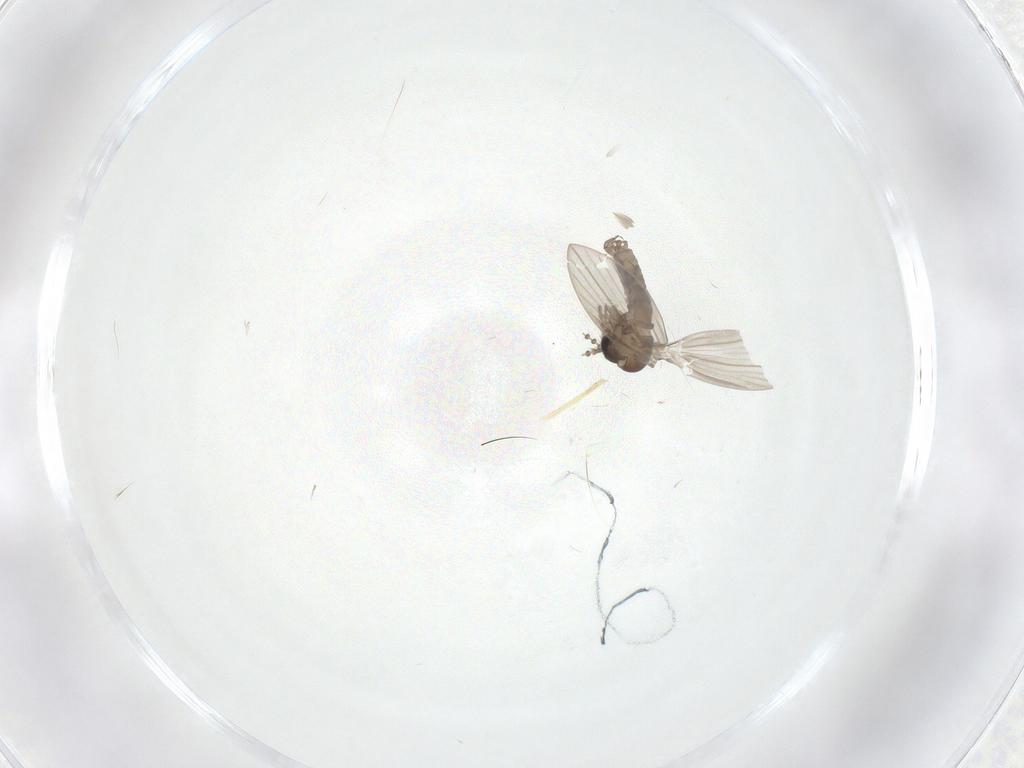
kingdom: Animalia
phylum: Arthropoda
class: Insecta
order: Diptera
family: Psychodidae
